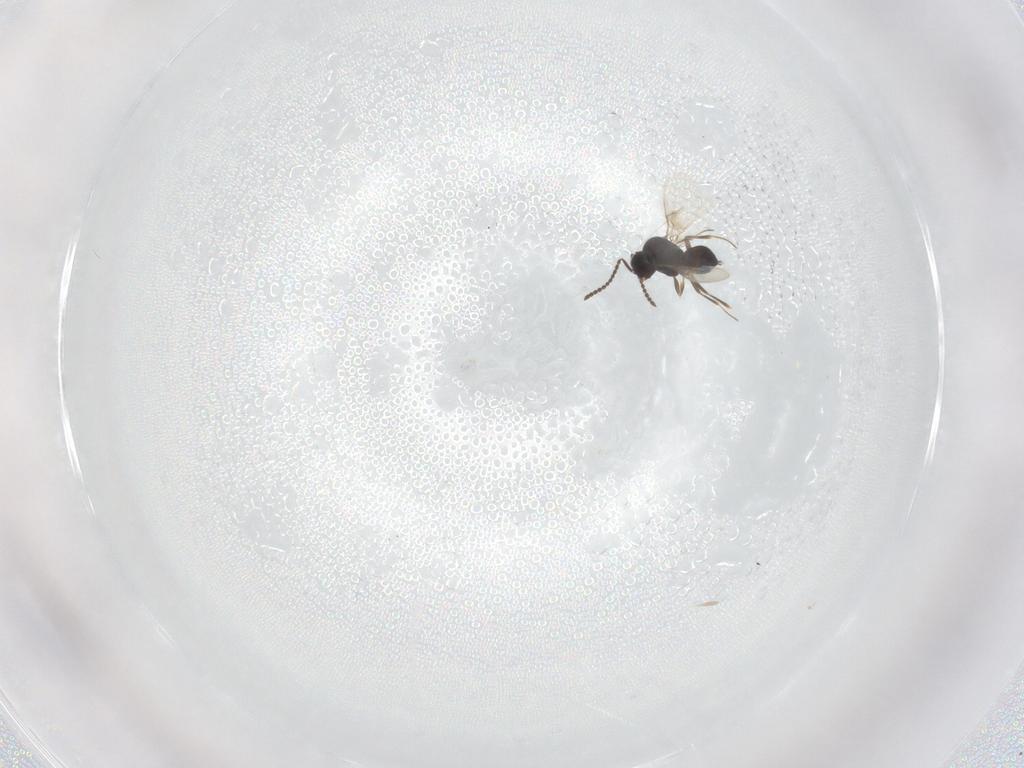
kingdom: Animalia
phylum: Arthropoda
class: Insecta
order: Hymenoptera
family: Scelionidae
